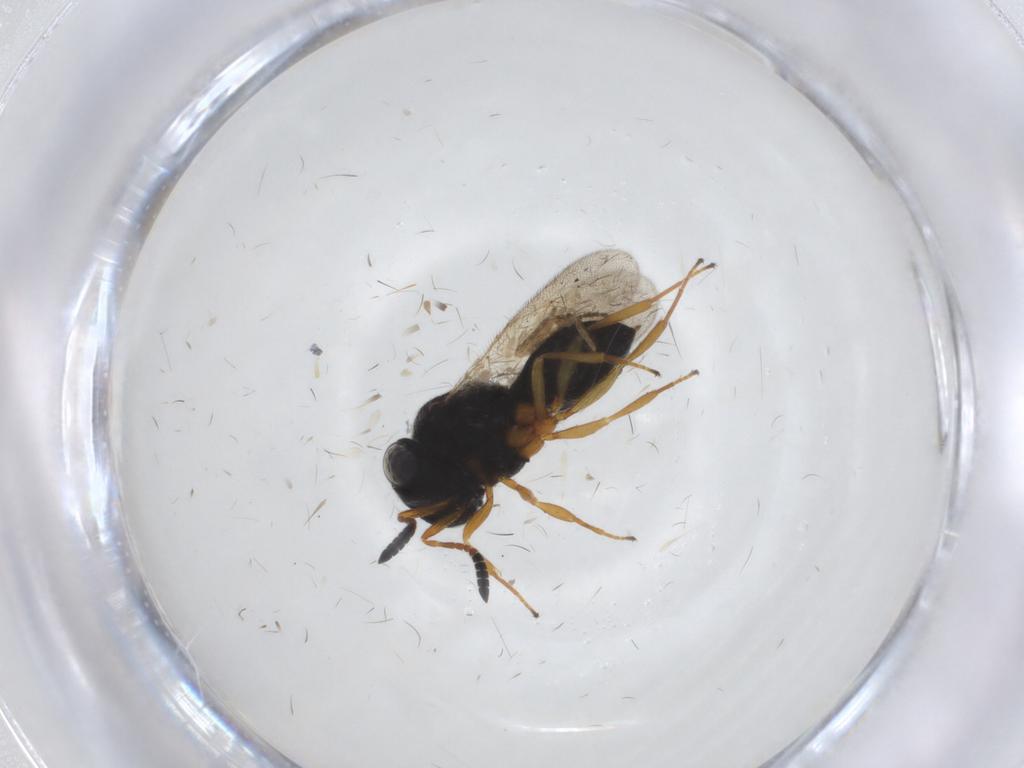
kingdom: Animalia
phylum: Arthropoda
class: Insecta
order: Hymenoptera
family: Scelionidae
